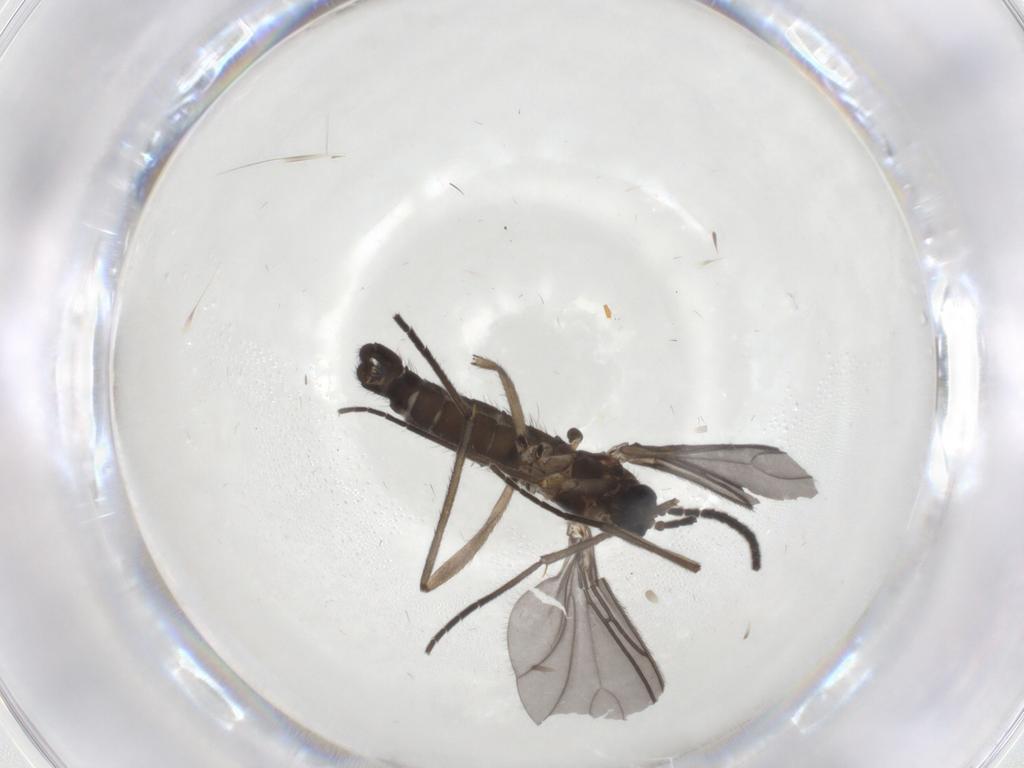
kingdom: Animalia
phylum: Arthropoda
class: Insecta
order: Diptera
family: Sciaridae
